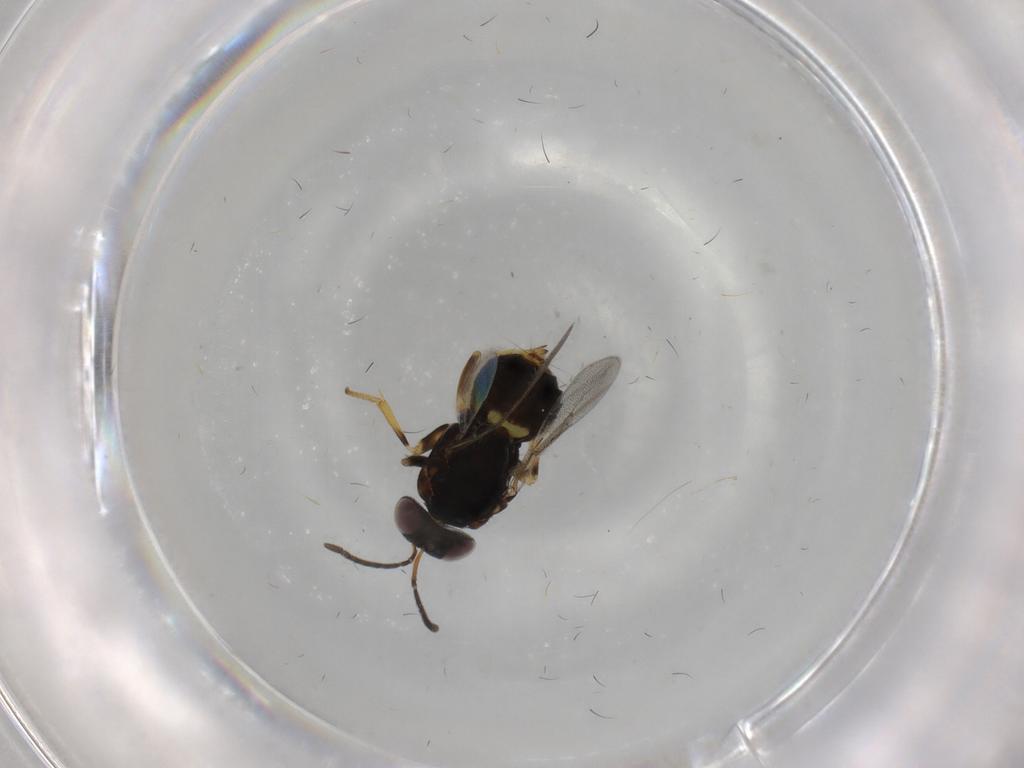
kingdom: Animalia
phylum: Arthropoda
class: Insecta
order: Hymenoptera
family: Tanaostigmatidae
